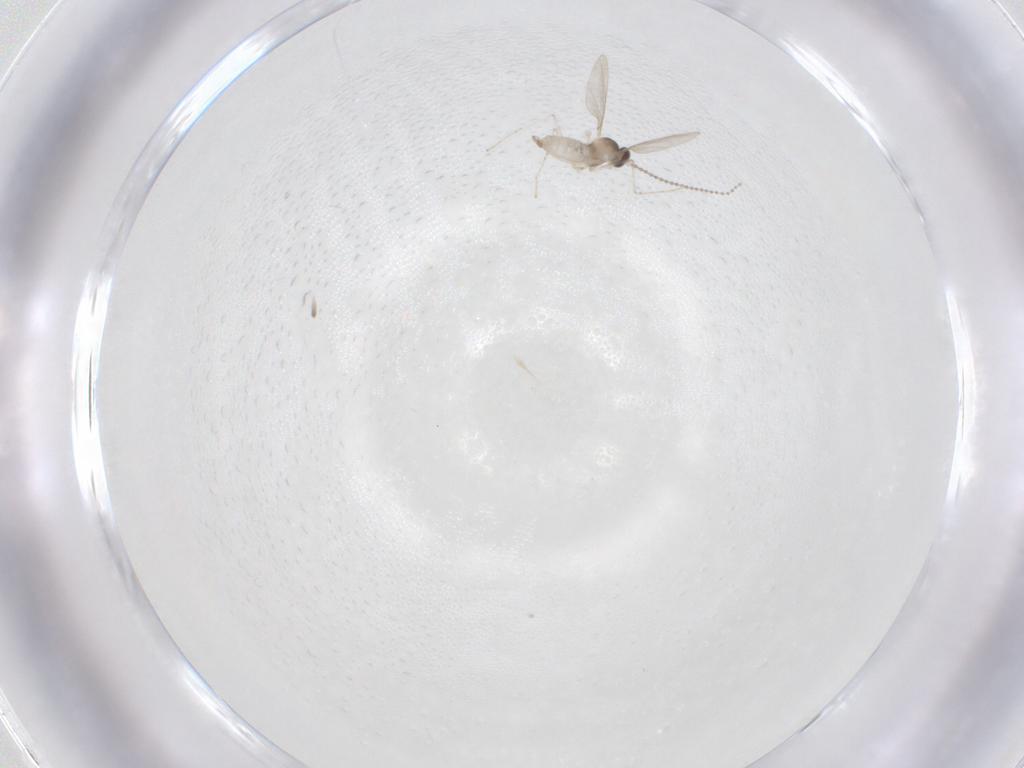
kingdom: Animalia
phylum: Arthropoda
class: Insecta
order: Diptera
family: Cecidomyiidae
